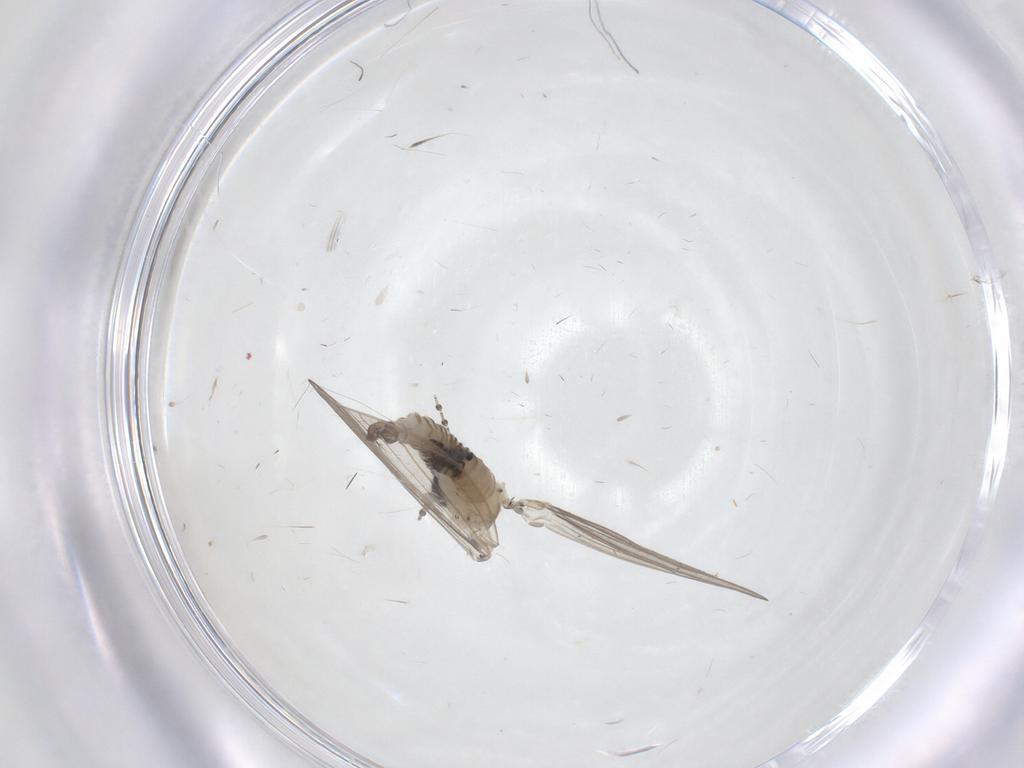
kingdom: Animalia
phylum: Arthropoda
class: Insecta
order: Diptera
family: Psychodidae
